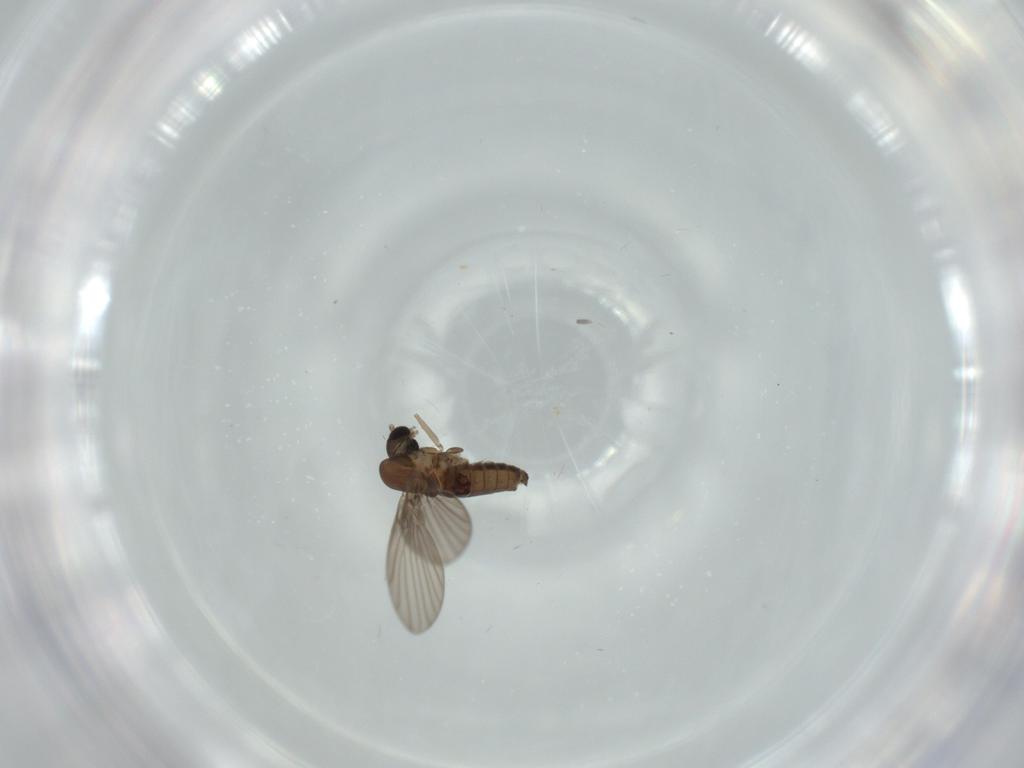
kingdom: Animalia
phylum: Arthropoda
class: Insecta
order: Diptera
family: Psychodidae
